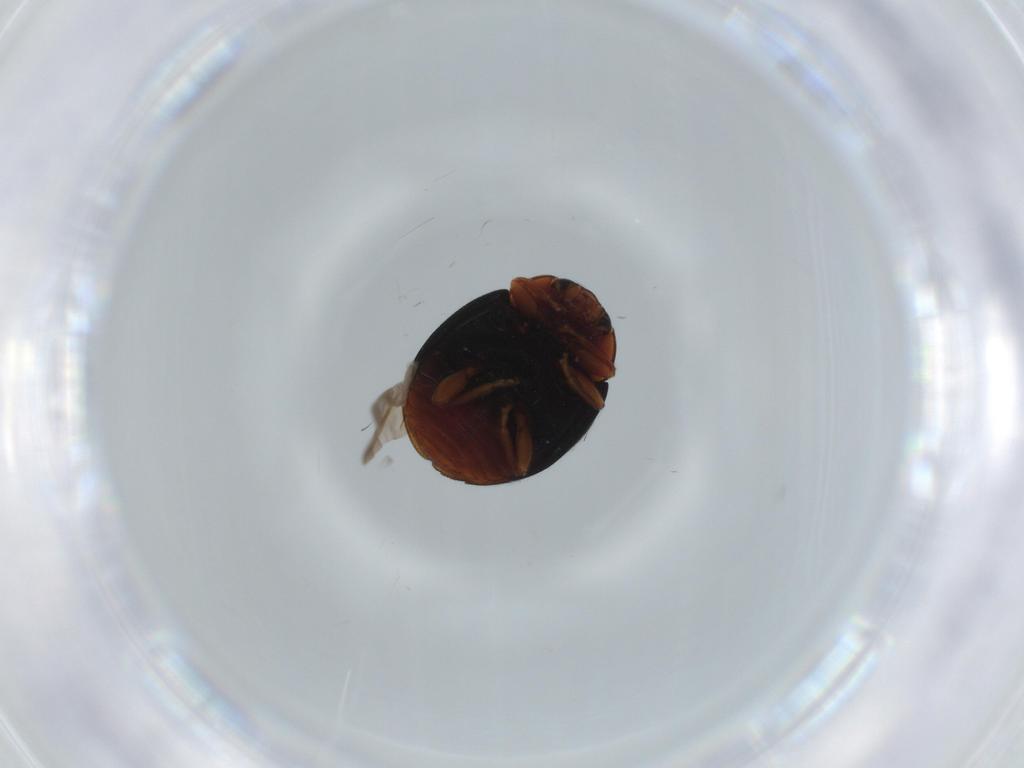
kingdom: Animalia
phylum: Arthropoda
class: Insecta
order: Coleoptera
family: Coccinellidae
